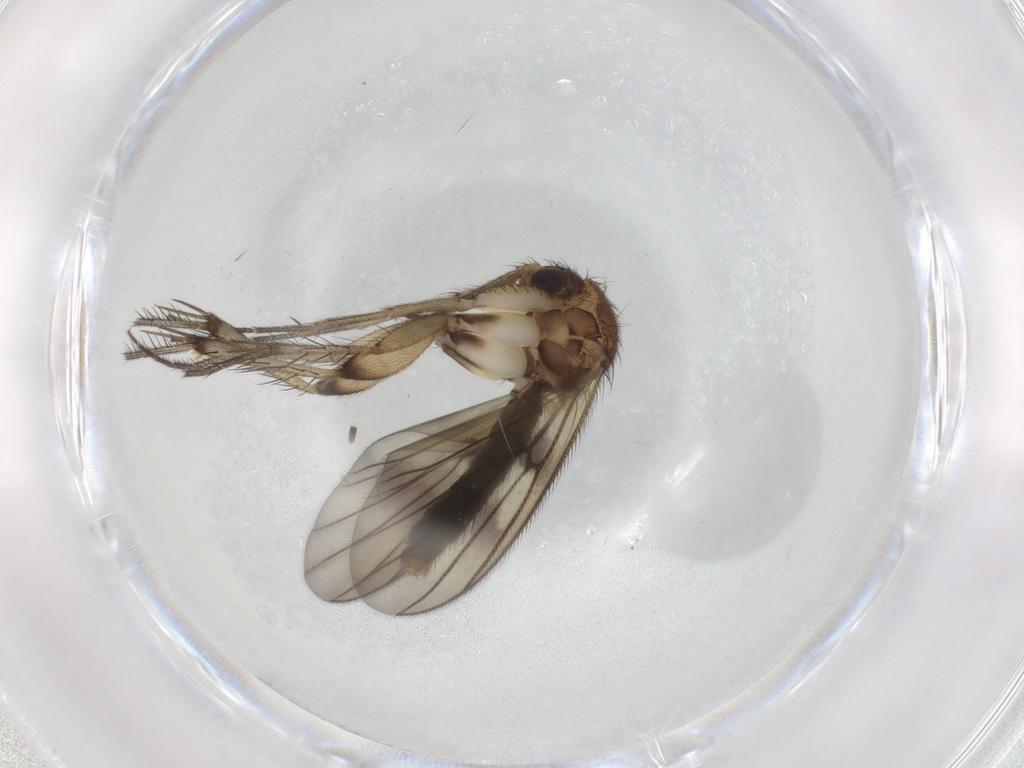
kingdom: Animalia
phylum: Arthropoda
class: Insecta
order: Diptera
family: Mycetophilidae
